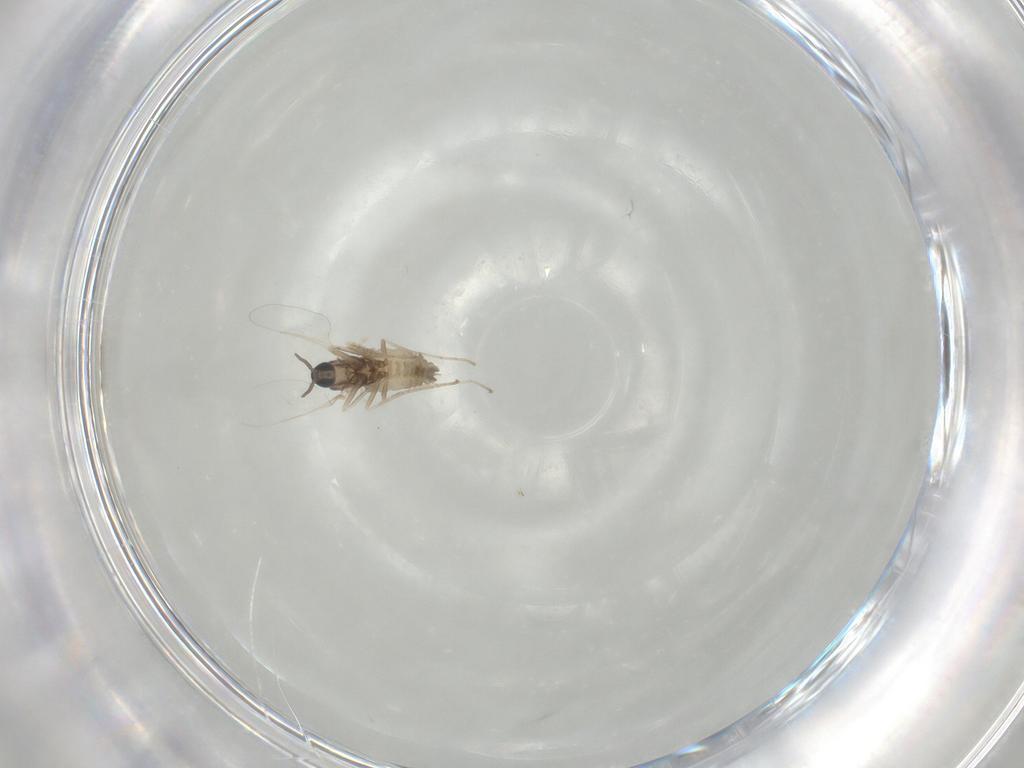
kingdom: Animalia
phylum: Arthropoda
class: Insecta
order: Diptera
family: Cecidomyiidae
